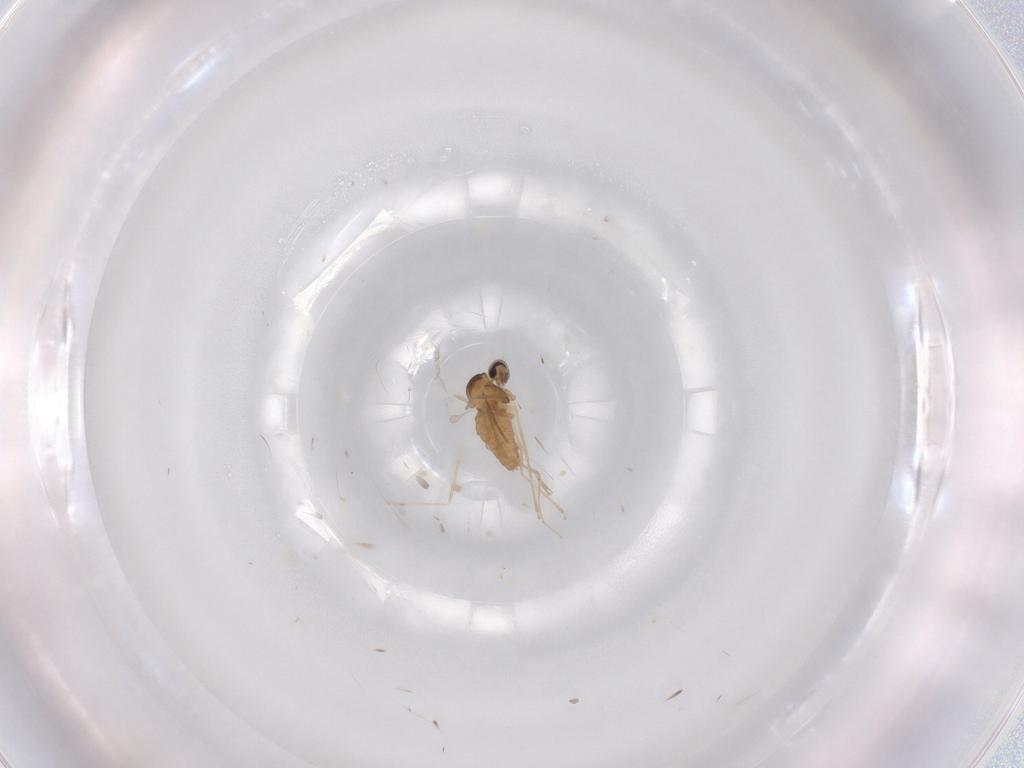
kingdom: Animalia
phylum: Arthropoda
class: Insecta
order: Diptera
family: Cecidomyiidae
